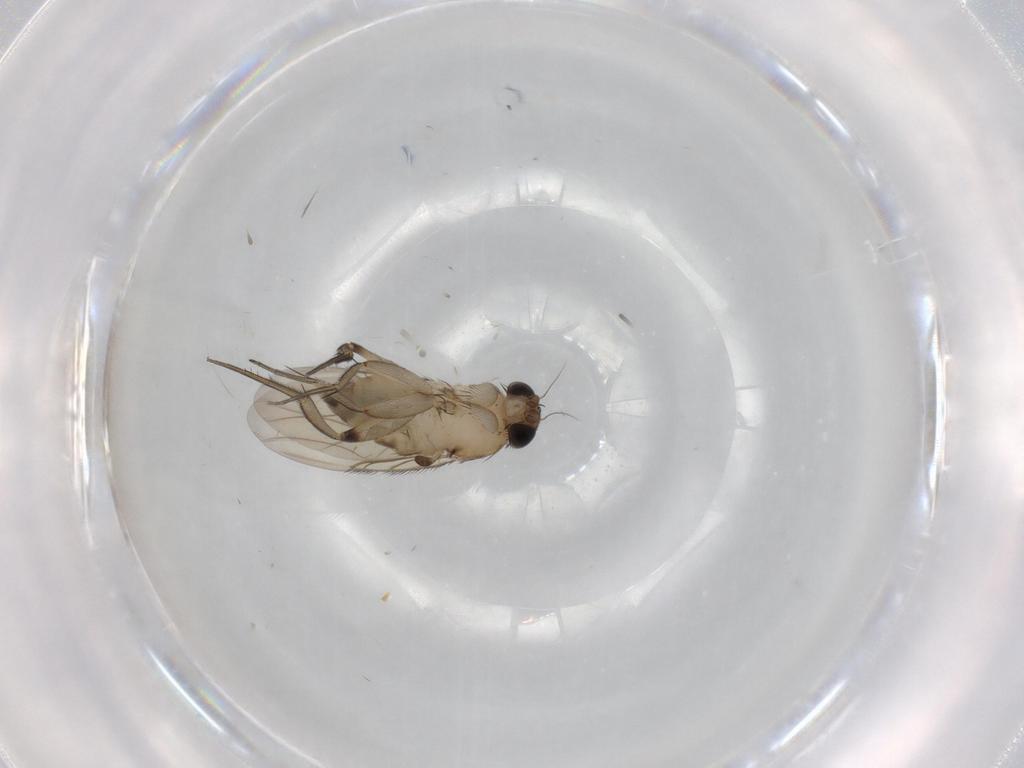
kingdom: Animalia
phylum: Arthropoda
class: Insecta
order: Diptera
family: Phoridae
